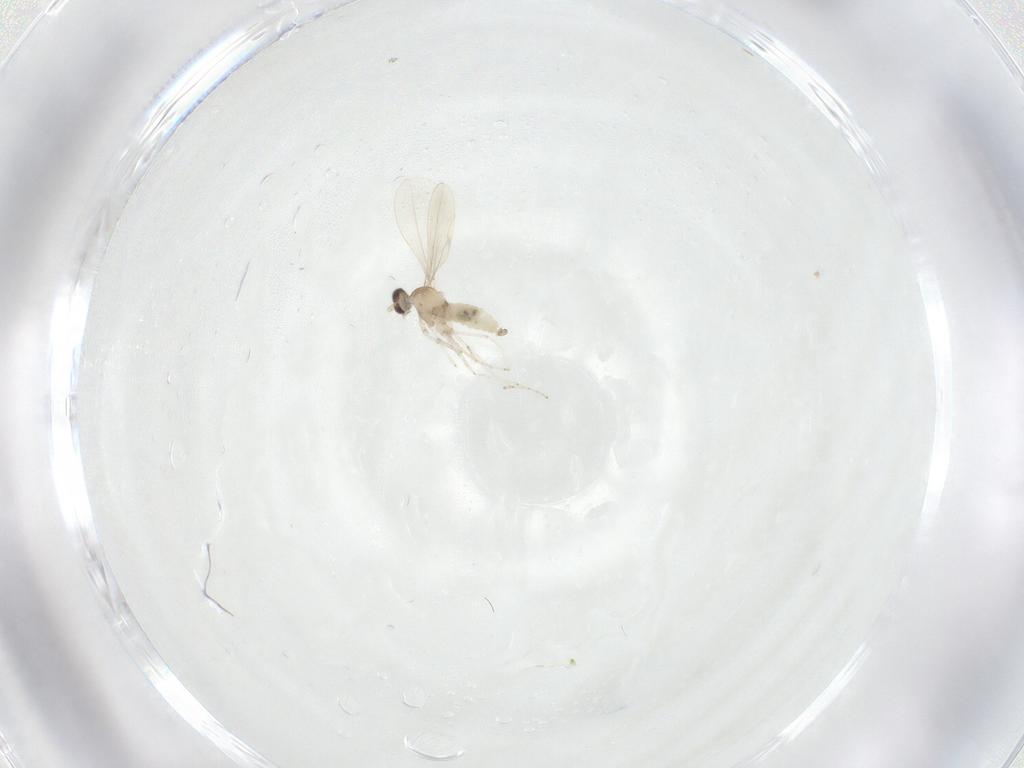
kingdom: Animalia
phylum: Arthropoda
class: Insecta
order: Diptera
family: Cecidomyiidae
